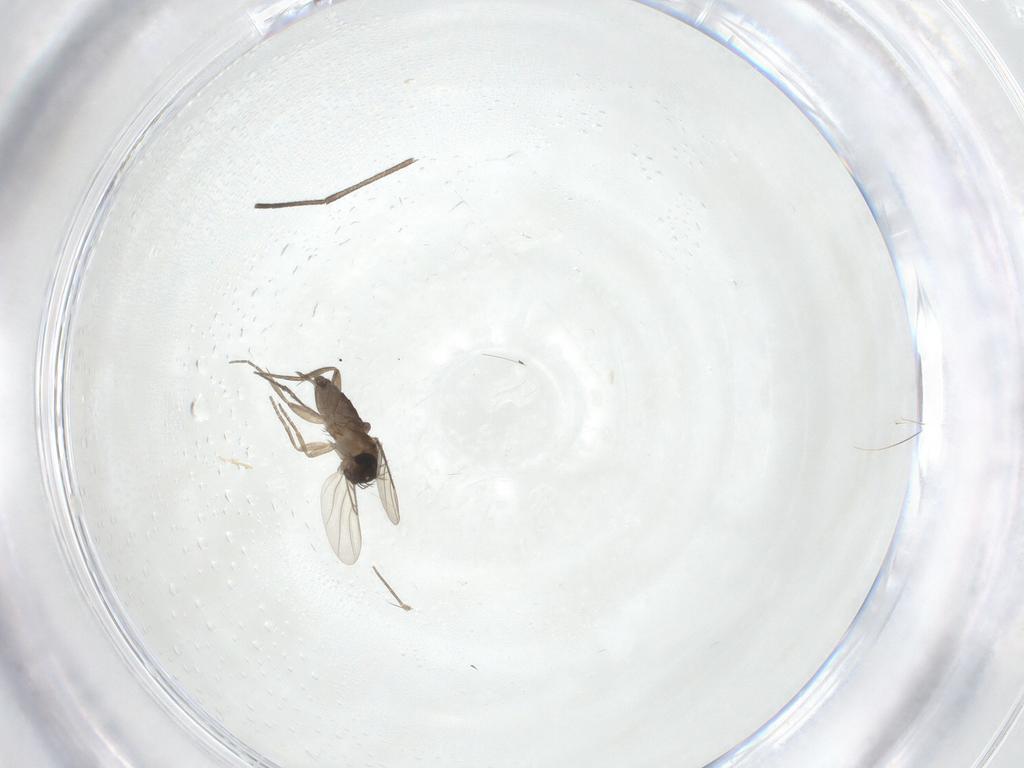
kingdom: Animalia
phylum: Arthropoda
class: Insecta
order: Diptera
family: Phoridae
